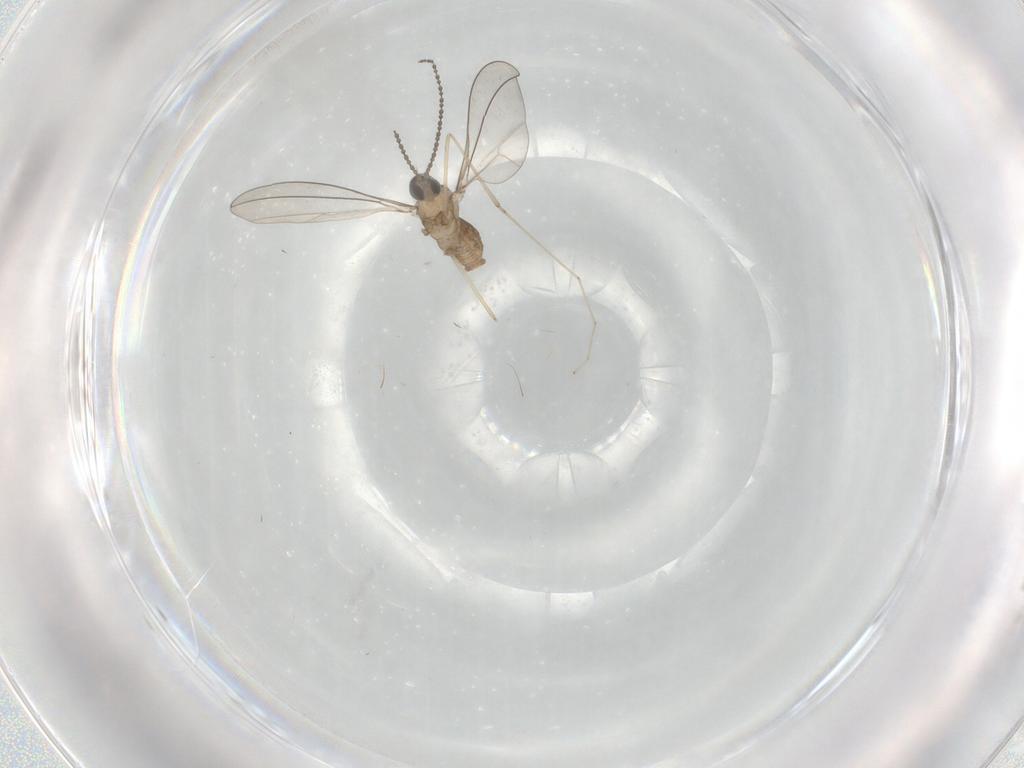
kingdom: Animalia
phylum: Arthropoda
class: Insecta
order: Diptera
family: Cecidomyiidae
